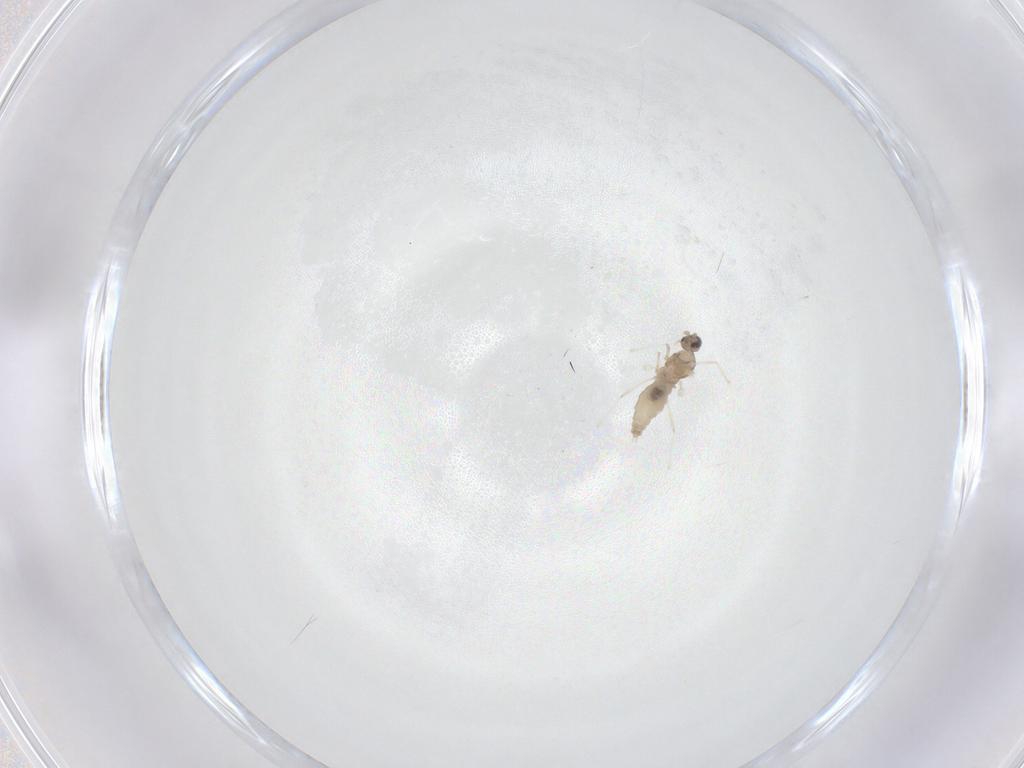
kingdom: Animalia
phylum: Arthropoda
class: Insecta
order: Diptera
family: Cecidomyiidae
